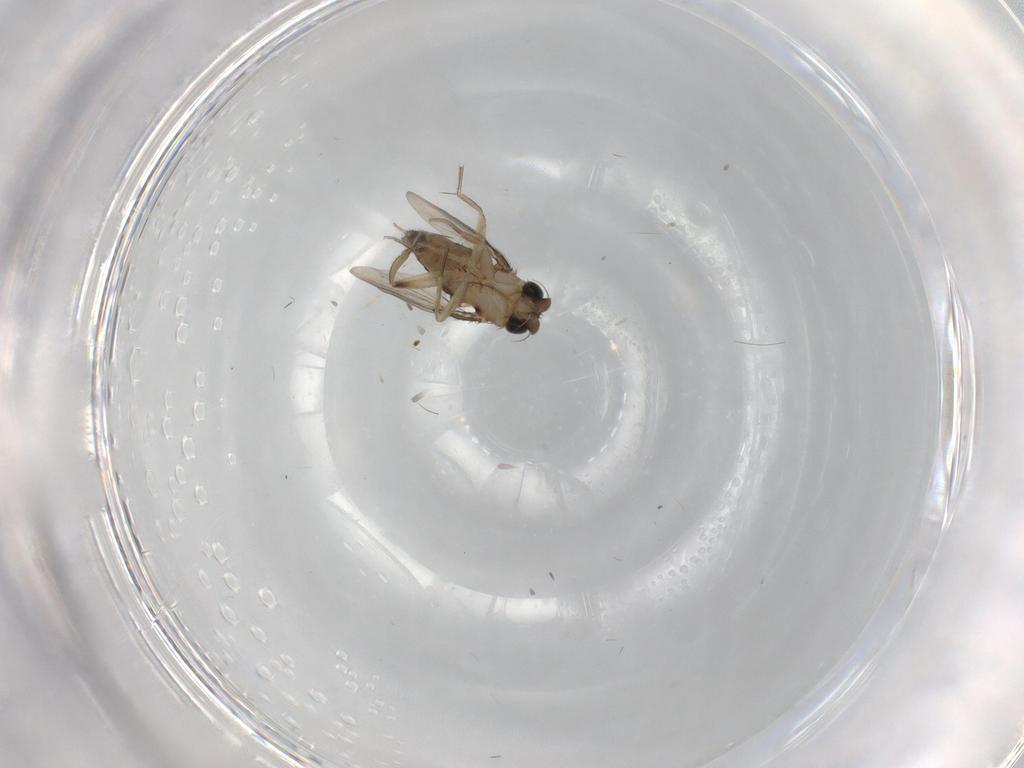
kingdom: Animalia
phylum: Arthropoda
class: Insecta
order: Diptera
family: Phoridae
